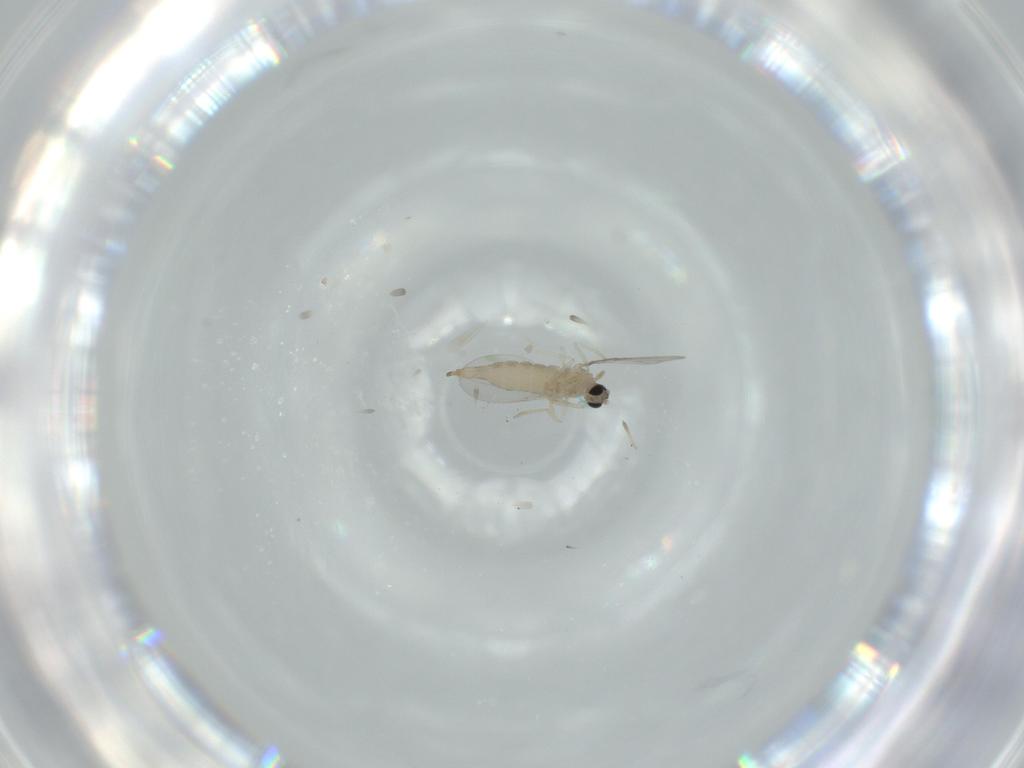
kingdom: Animalia
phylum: Arthropoda
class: Insecta
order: Diptera
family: Cecidomyiidae
